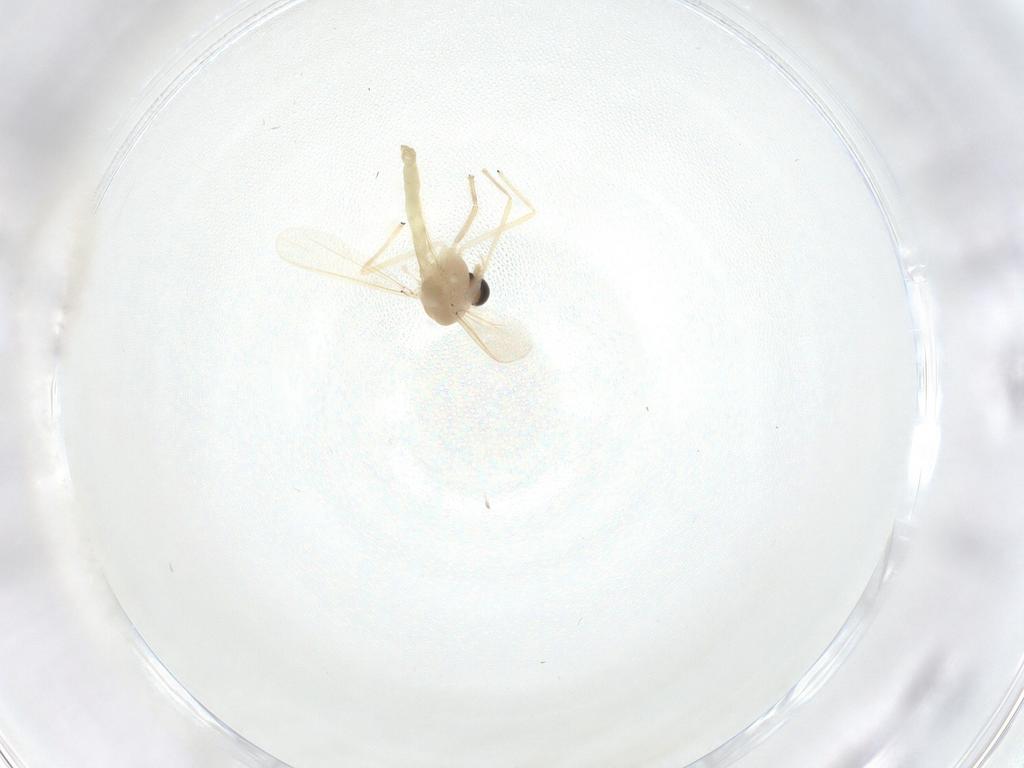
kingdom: Animalia
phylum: Arthropoda
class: Insecta
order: Diptera
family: Chironomidae
